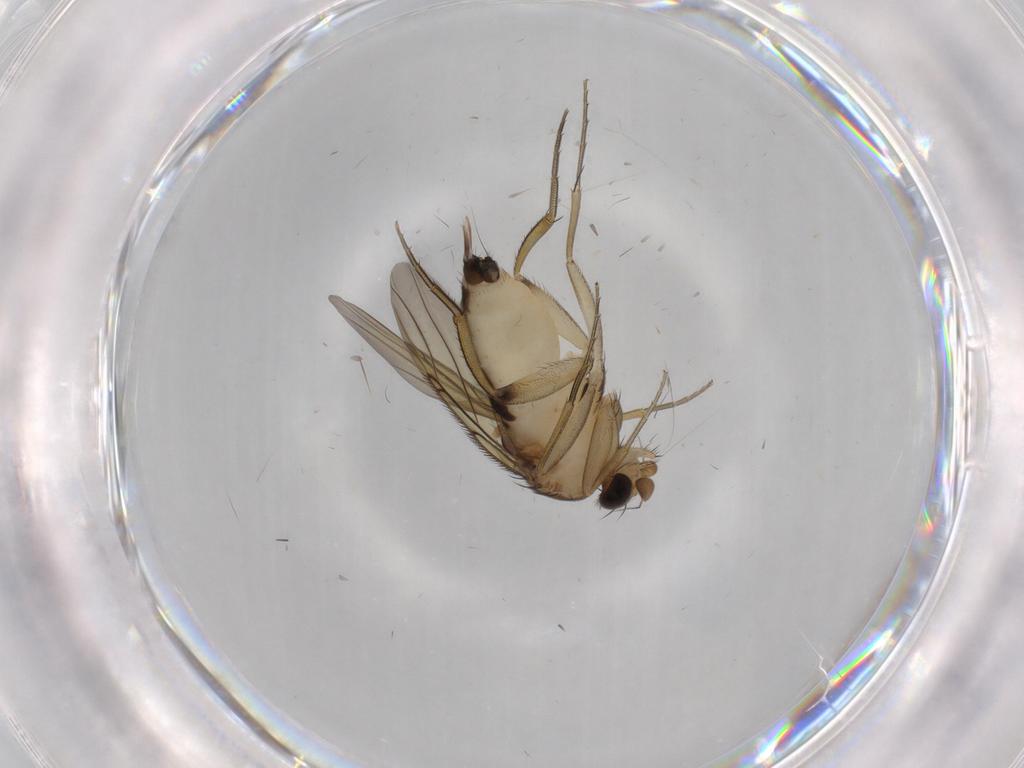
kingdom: Animalia
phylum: Arthropoda
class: Insecta
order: Diptera
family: Phoridae
